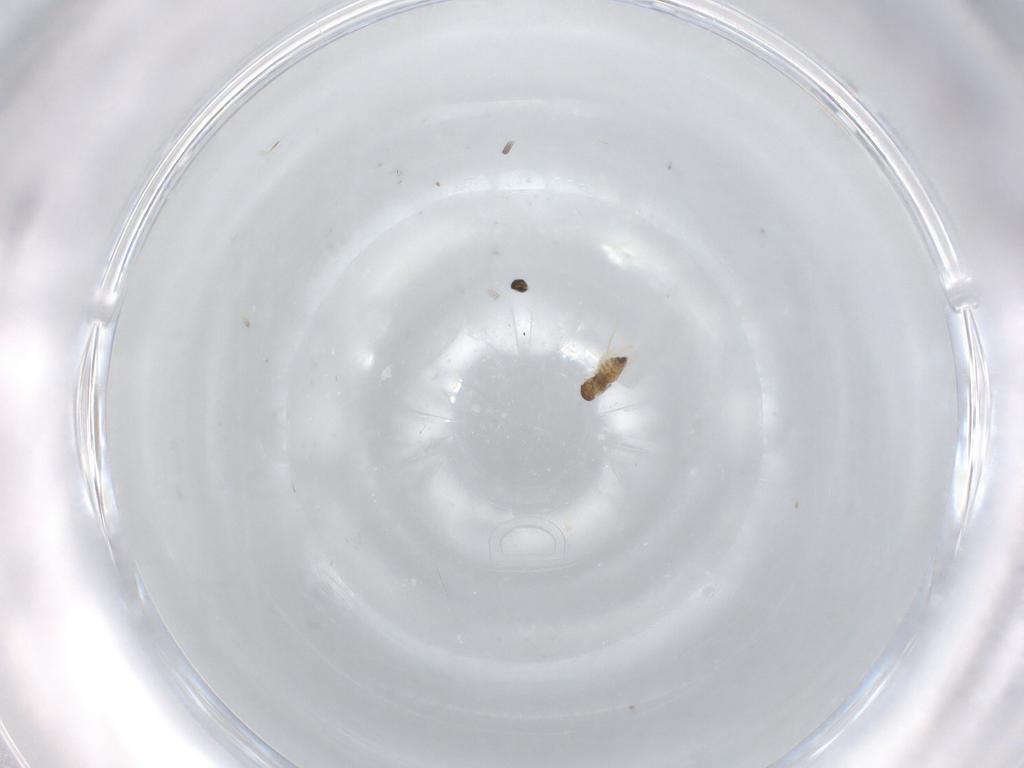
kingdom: Animalia
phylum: Arthropoda
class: Insecta
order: Diptera
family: Cecidomyiidae
